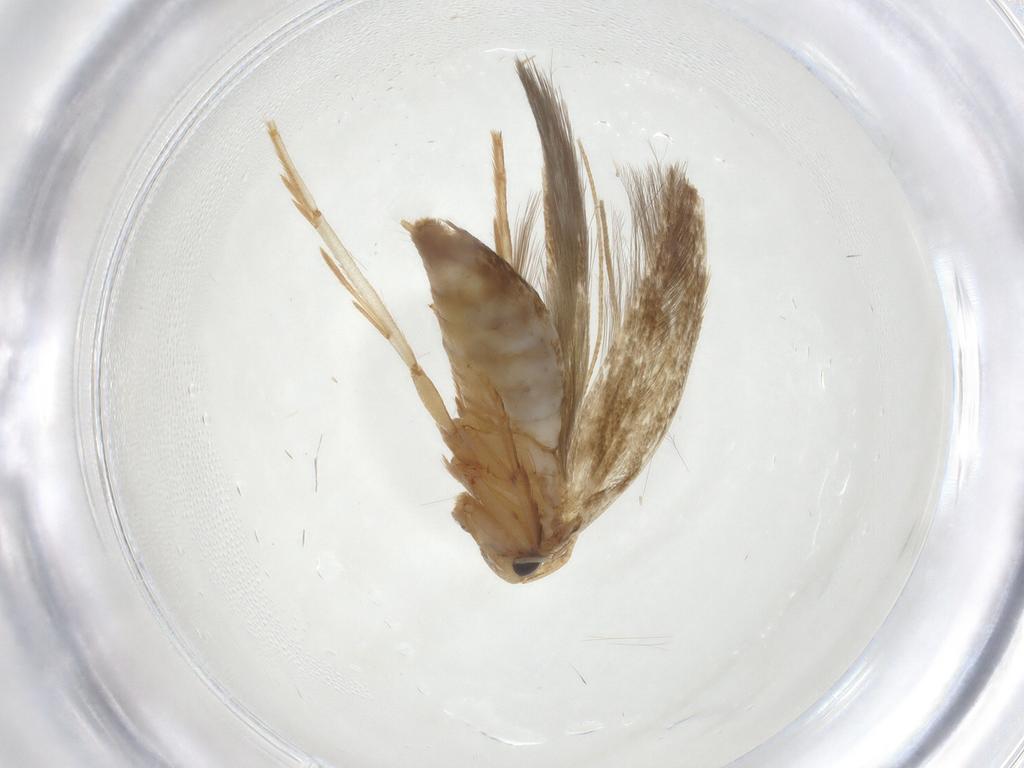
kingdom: Animalia
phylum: Arthropoda
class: Insecta
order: Lepidoptera
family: Tineidae
